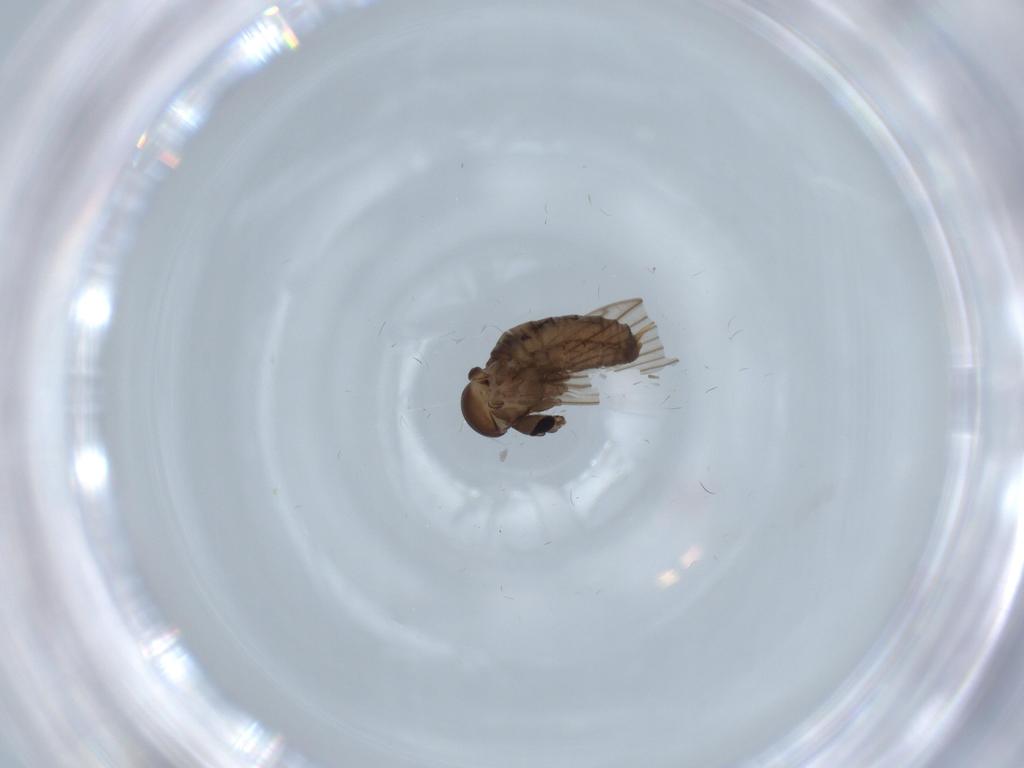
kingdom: Animalia
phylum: Arthropoda
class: Insecta
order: Diptera
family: Psychodidae
